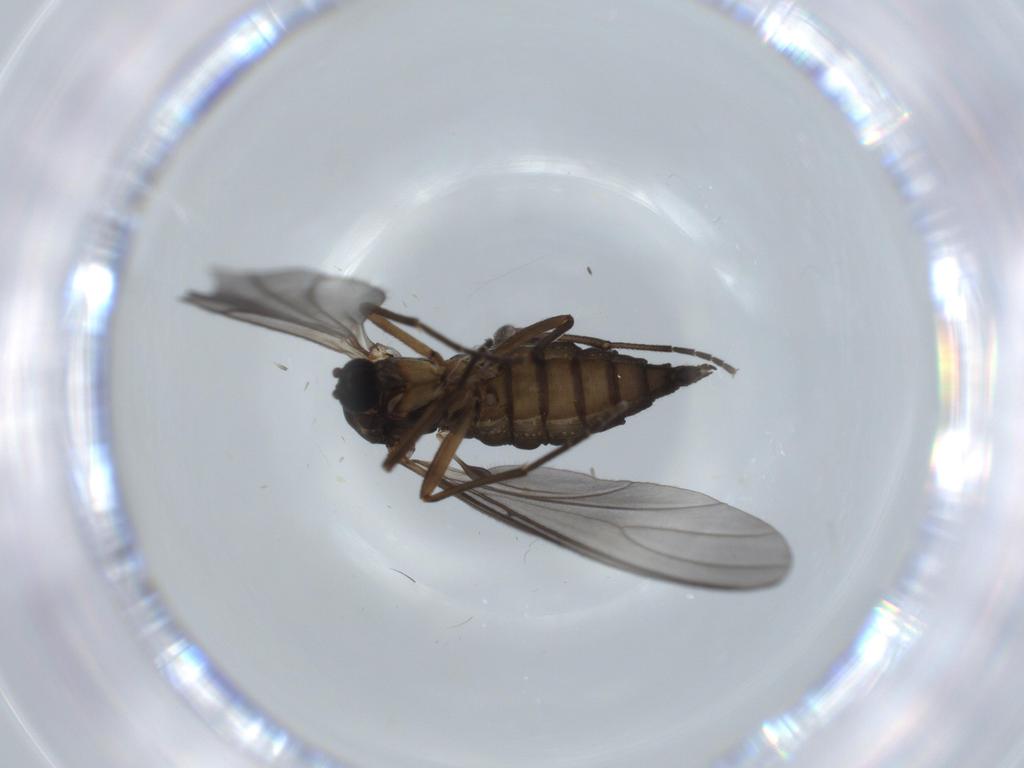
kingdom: Animalia
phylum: Arthropoda
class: Insecta
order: Diptera
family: Sciaridae
